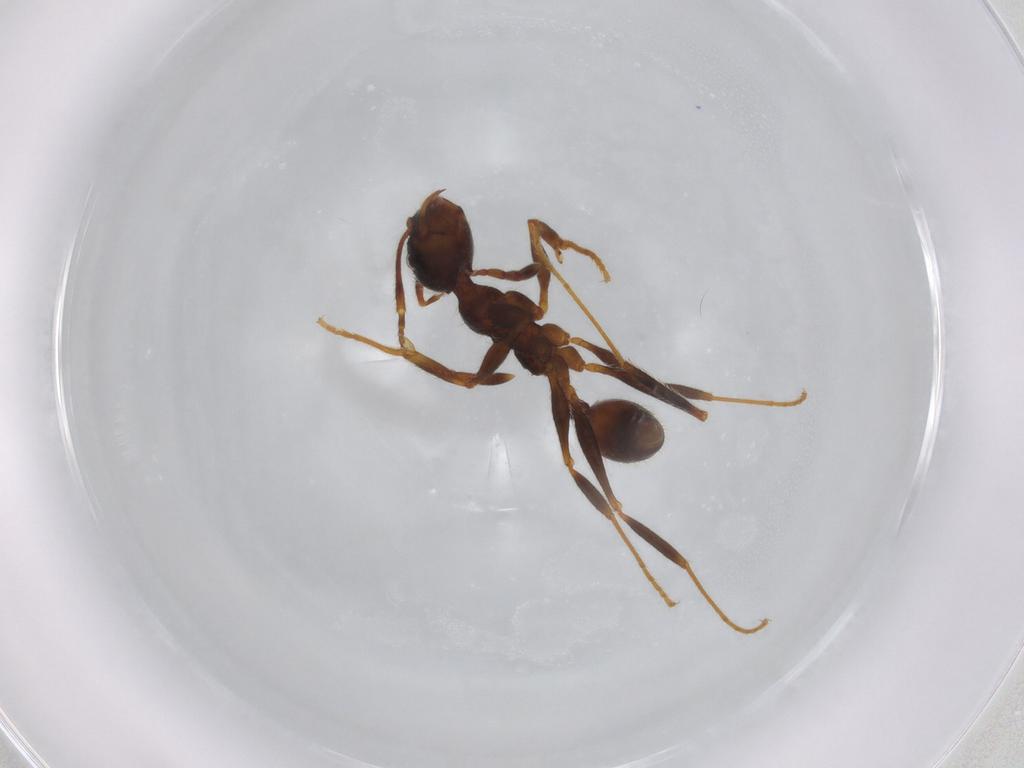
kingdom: Animalia
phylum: Arthropoda
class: Insecta
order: Hymenoptera
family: Formicidae
